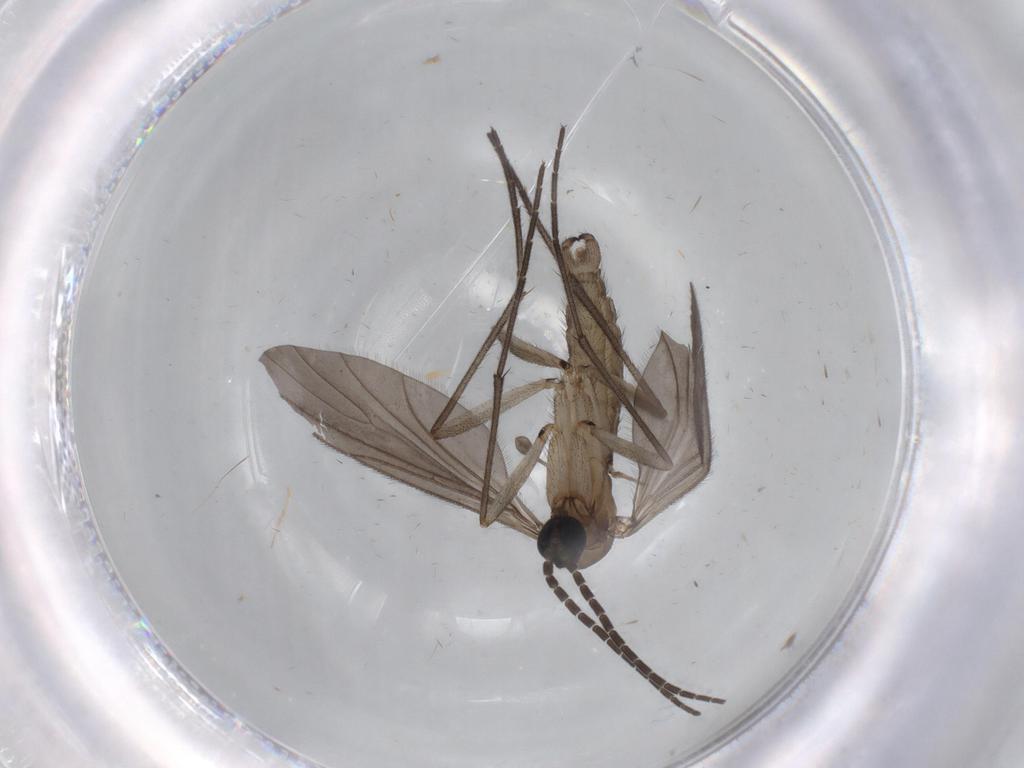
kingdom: Animalia
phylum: Arthropoda
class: Insecta
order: Diptera
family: Sciaridae
